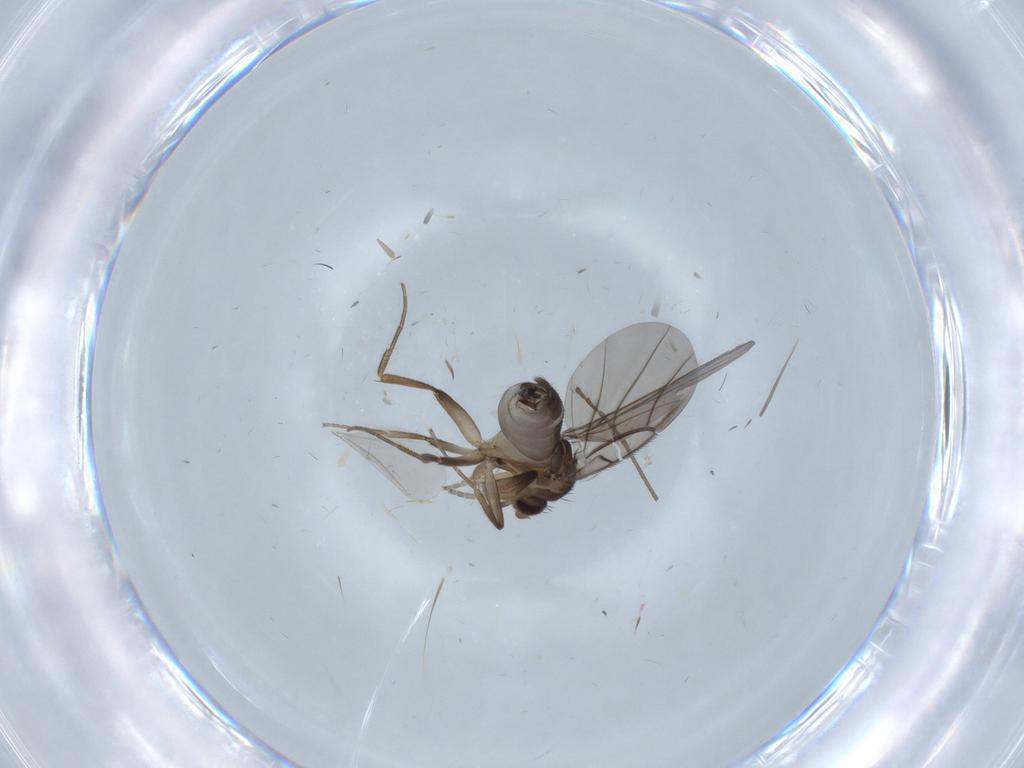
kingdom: Animalia
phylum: Arthropoda
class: Insecta
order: Diptera
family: Phoridae
